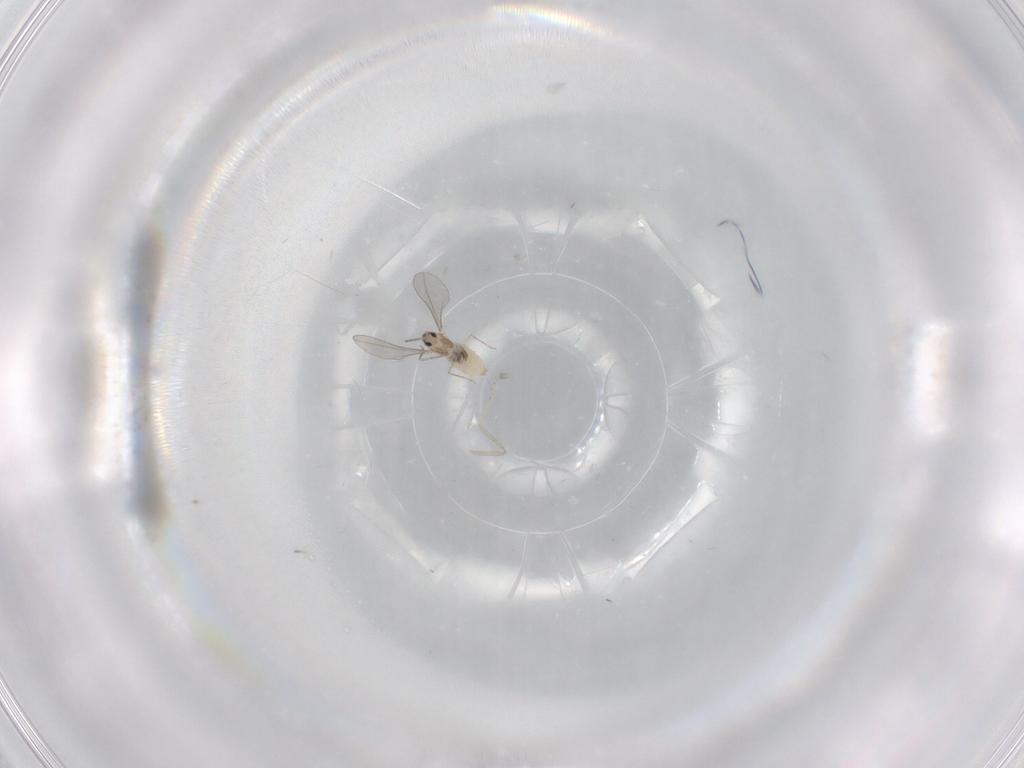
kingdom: Animalia
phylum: Arthropoda
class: Insecta
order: Diptera
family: Cecidomyiidae
